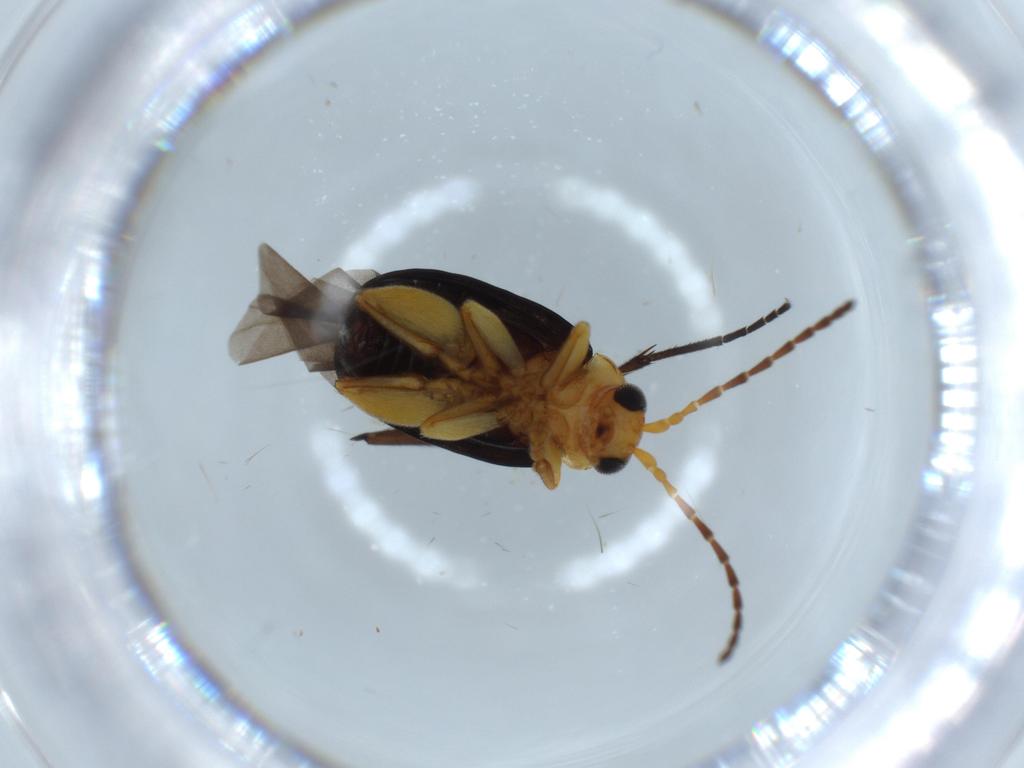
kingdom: Animalia
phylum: Arthropoda
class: Insecta
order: Coleoptera
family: Chrysomelidae
